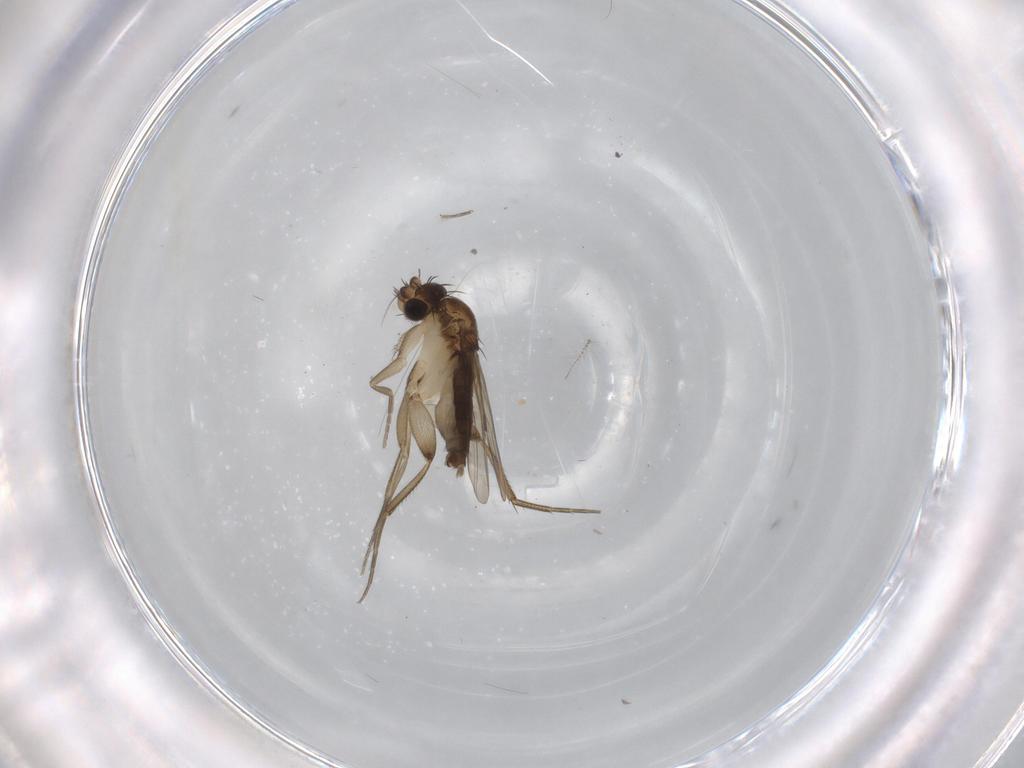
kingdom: Animalia
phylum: Arthropoda
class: Insecta
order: Diptera
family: Phoridae
